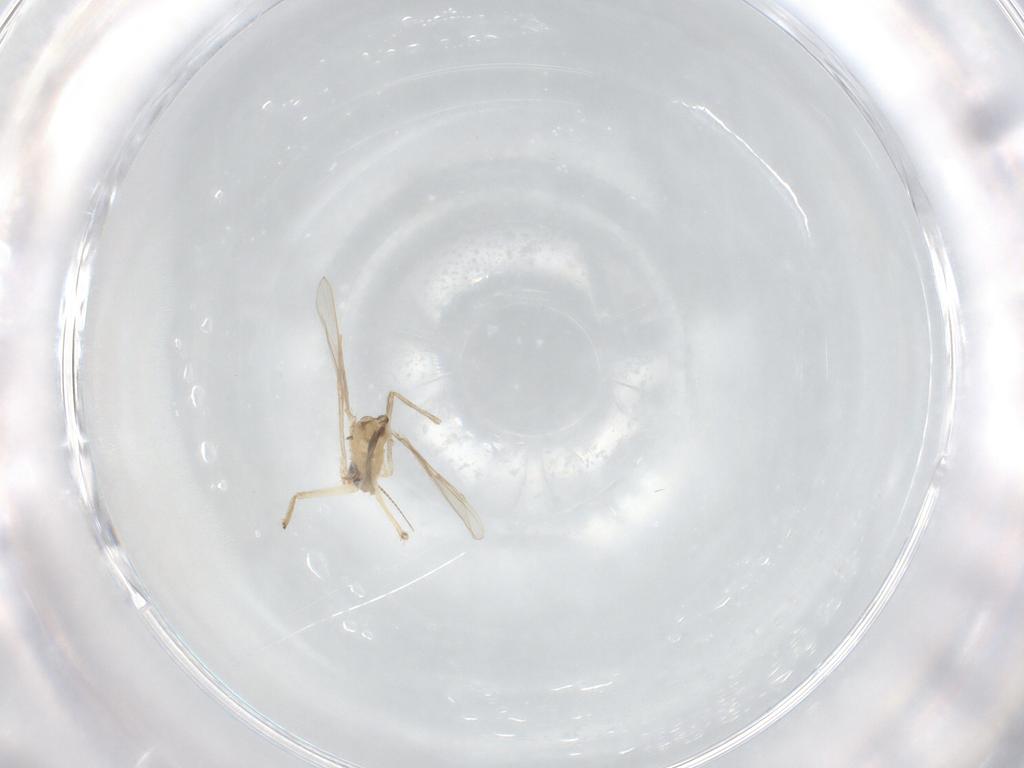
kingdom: Animalia
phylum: Arthropoda
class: Insecta
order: Diptera
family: Chironomidae
